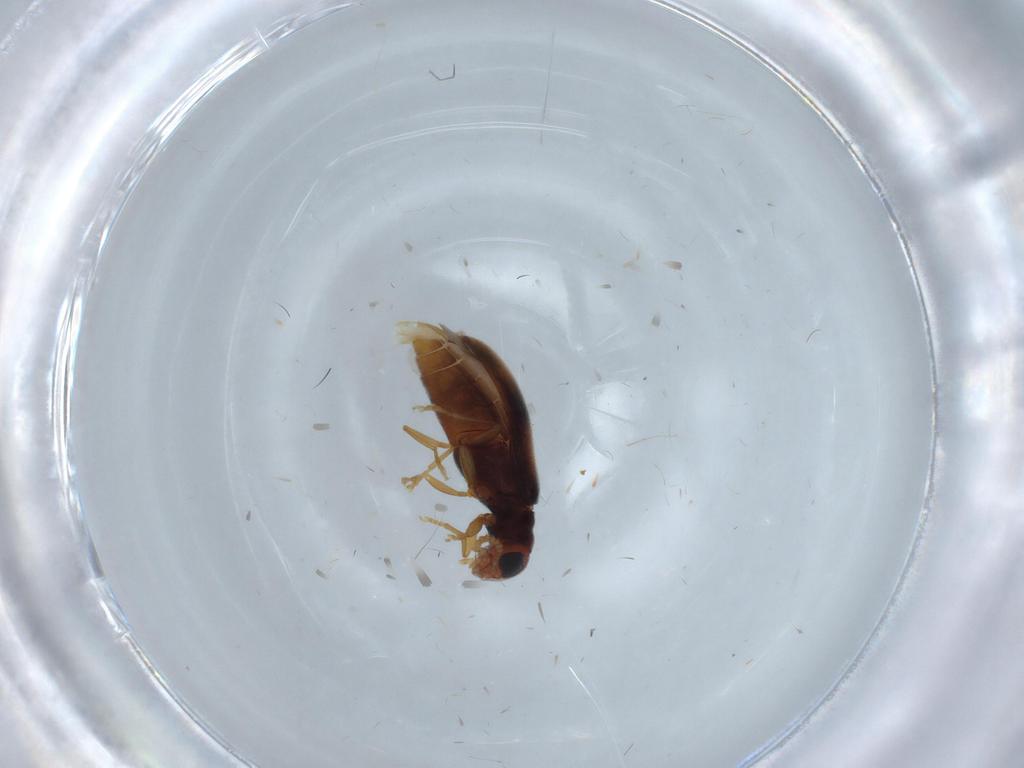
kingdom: Animalia
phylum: Arthropoda
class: Insecta
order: Coleoptera
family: Mycteridae
